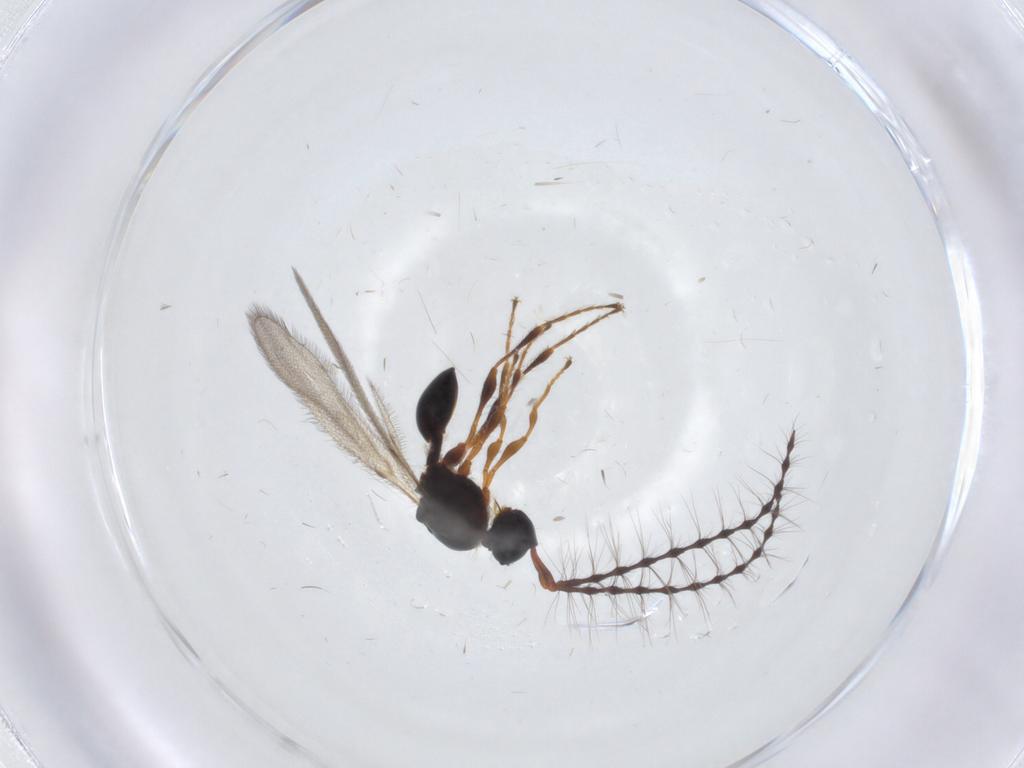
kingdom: Animalia
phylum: Arthropoda
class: Insecta
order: Hymenoptera
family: Diapriidae
